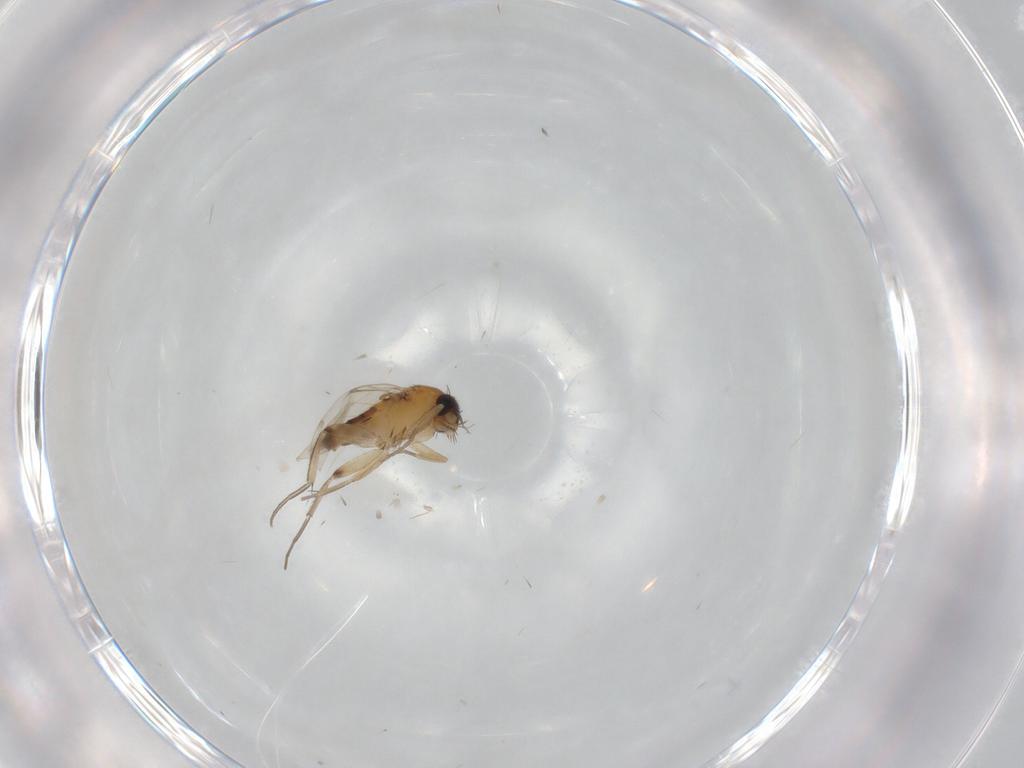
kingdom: Animalia
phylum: Arthropoda
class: Insecta
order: Diptera
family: Phoridae
